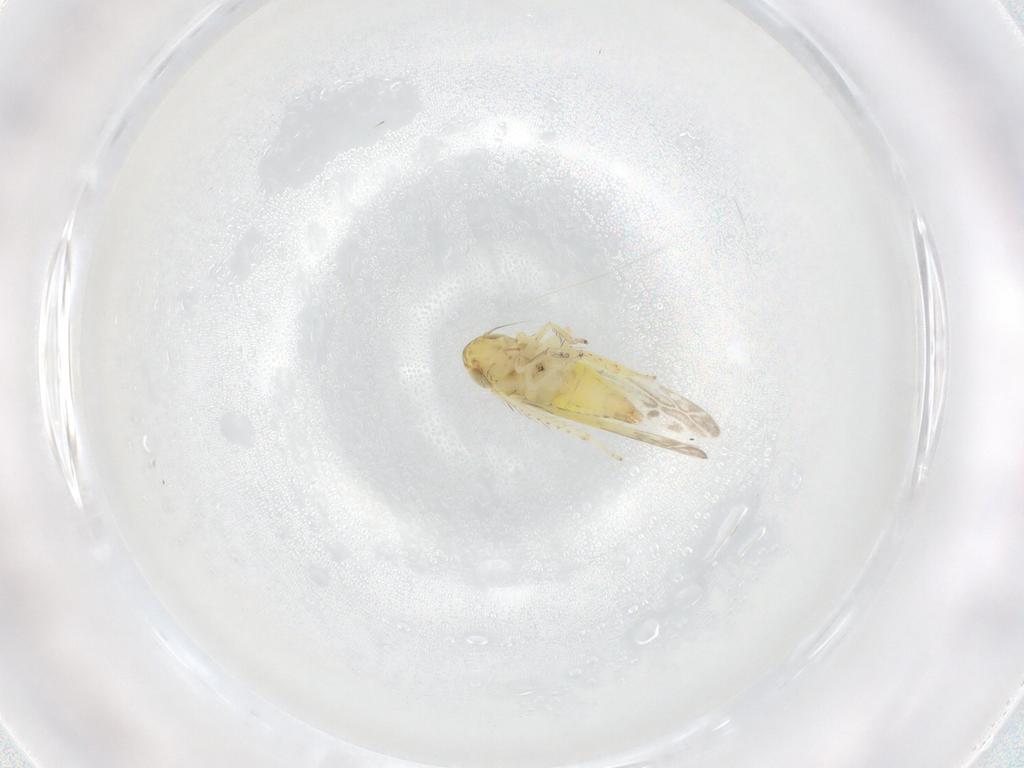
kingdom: Animalia
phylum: Arthropoda
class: Insecta
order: Hemiptera
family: Cicadellidae
